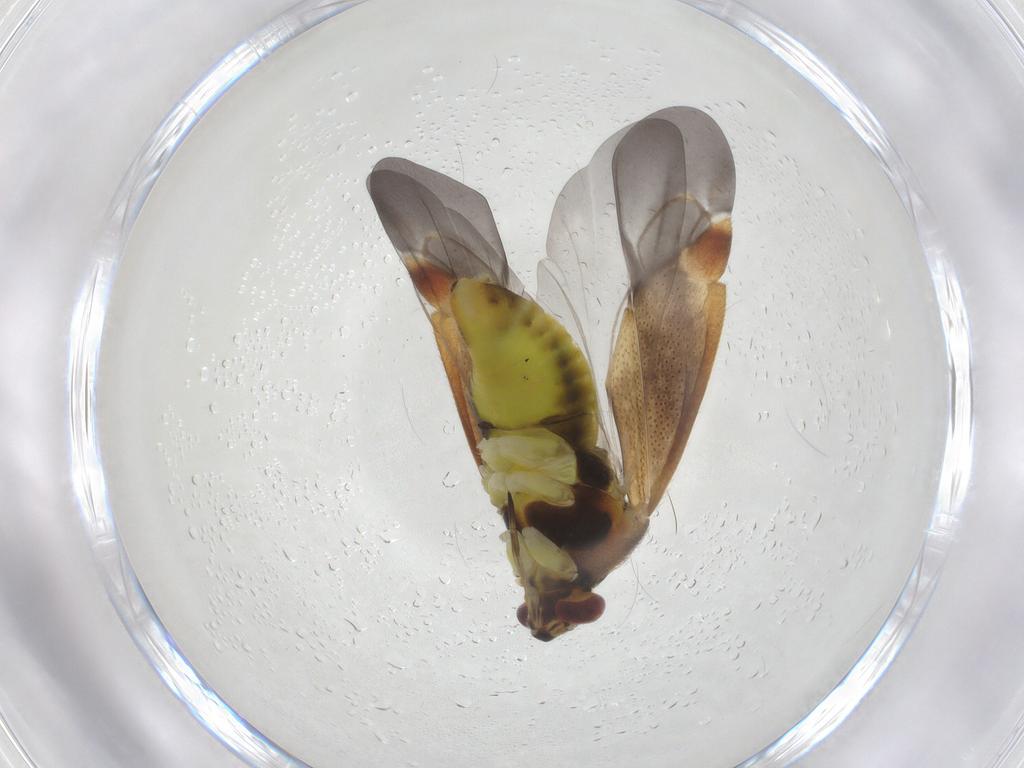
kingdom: Animalia
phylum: Arthropoda
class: Insecta
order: Hemiptera
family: Miridae
